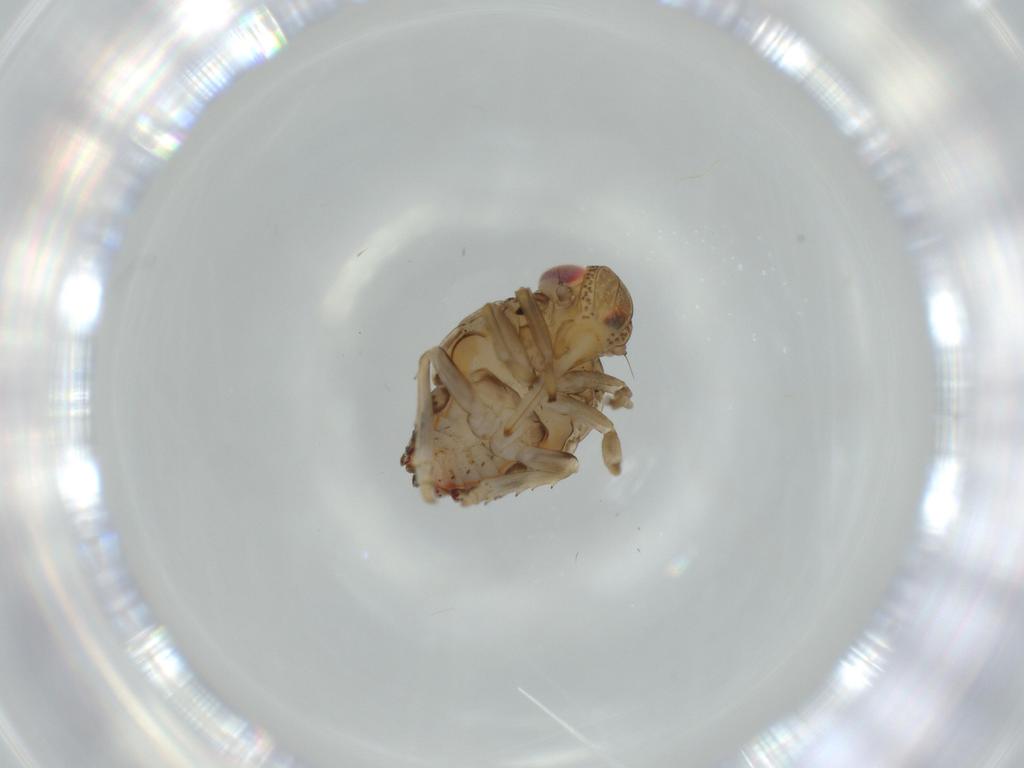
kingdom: Animalia
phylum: Arthropoda
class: Insecta
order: Hemiptera
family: Issidae
